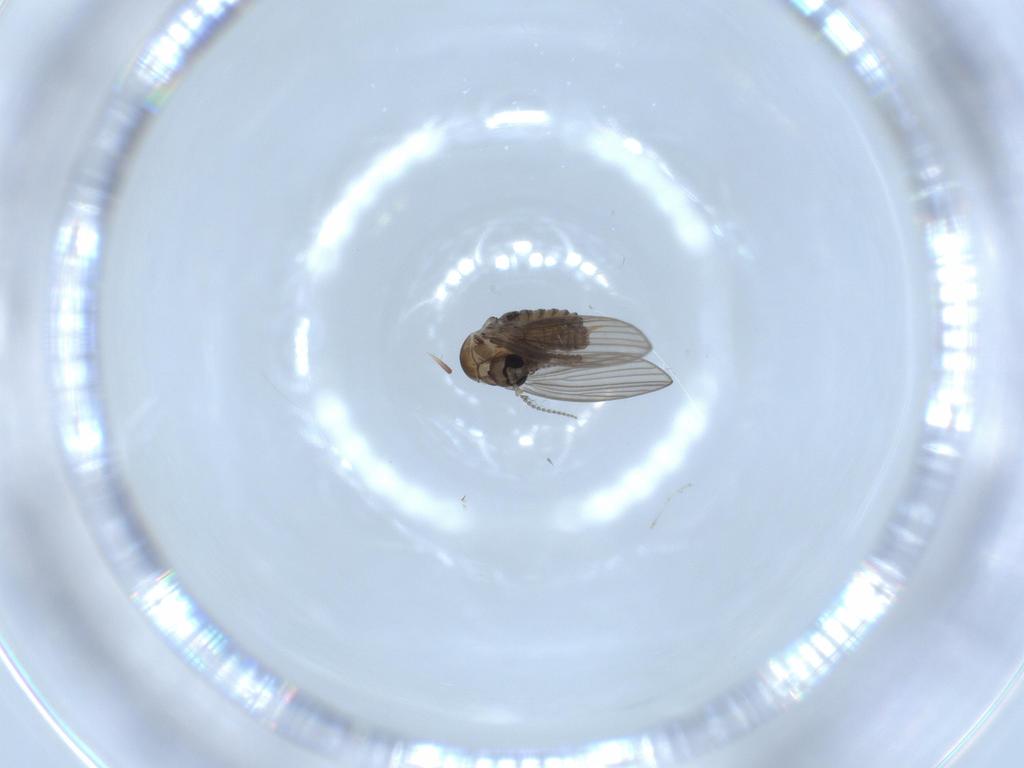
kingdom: Animalia
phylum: Arthropoda
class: Insecta
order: Diptera
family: Psychodidae
